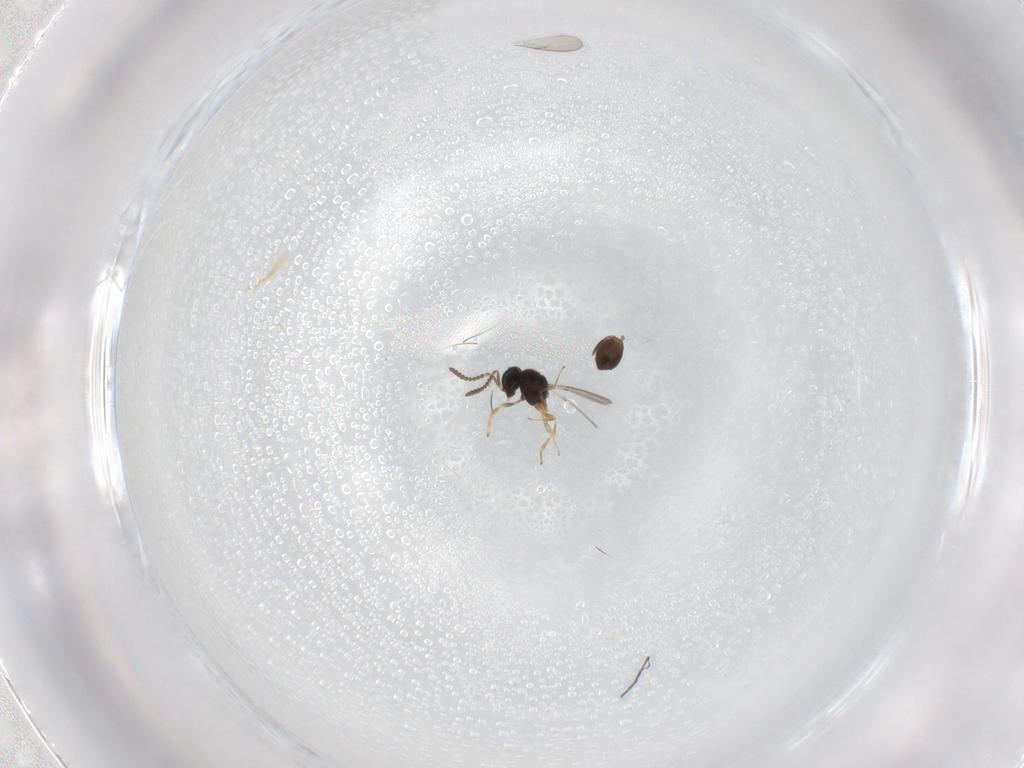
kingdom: Animalia
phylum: Arthropoda
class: Insecta
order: Hymenoptera
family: Scelionidae
